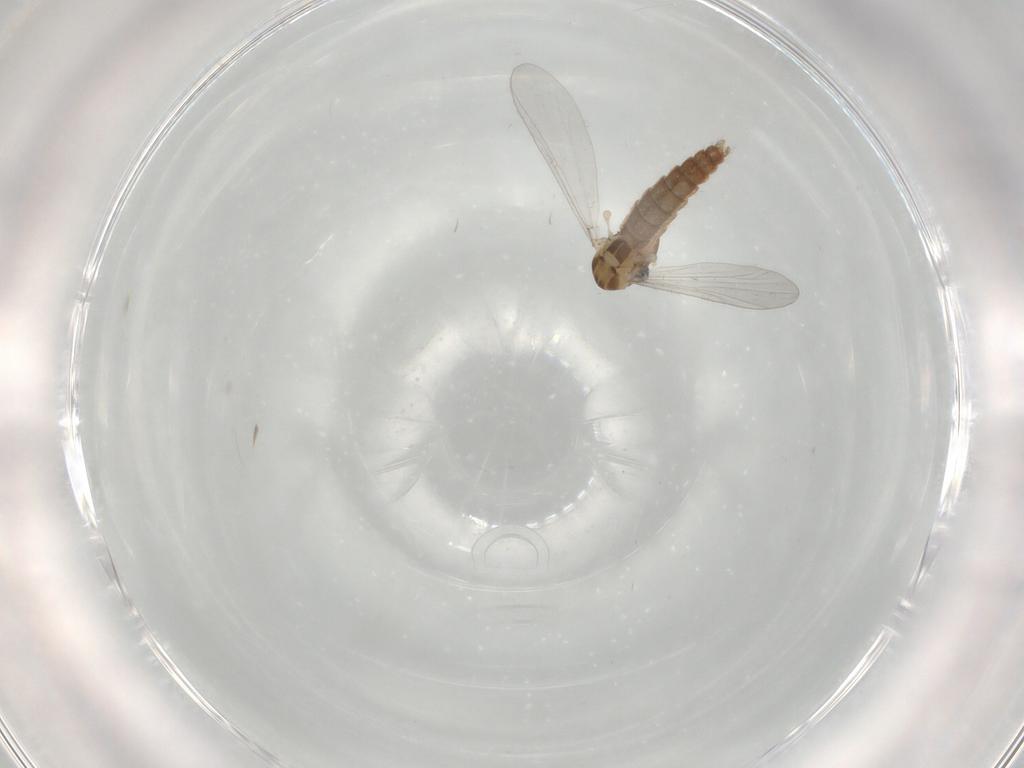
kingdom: Animalia
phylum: Arthropoda
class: Insecta
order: Diptera
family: Chironomidae
